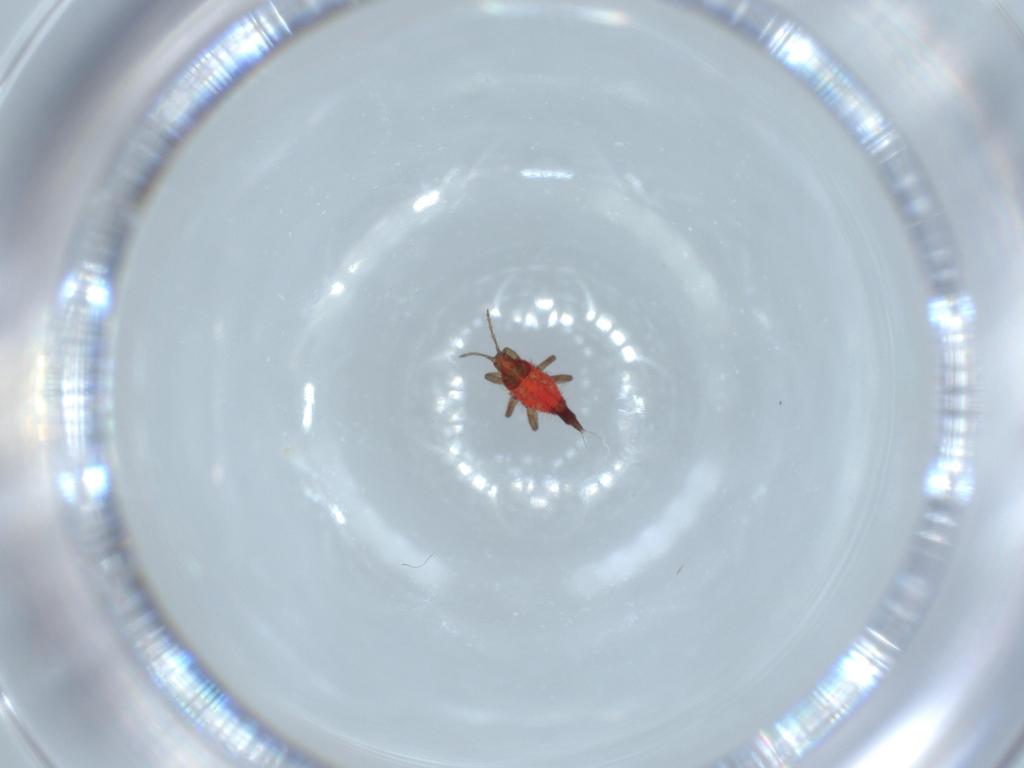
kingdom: Animalia
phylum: Arthropoda
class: Insecta
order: Thysanoptera
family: Phlaeothripidae
